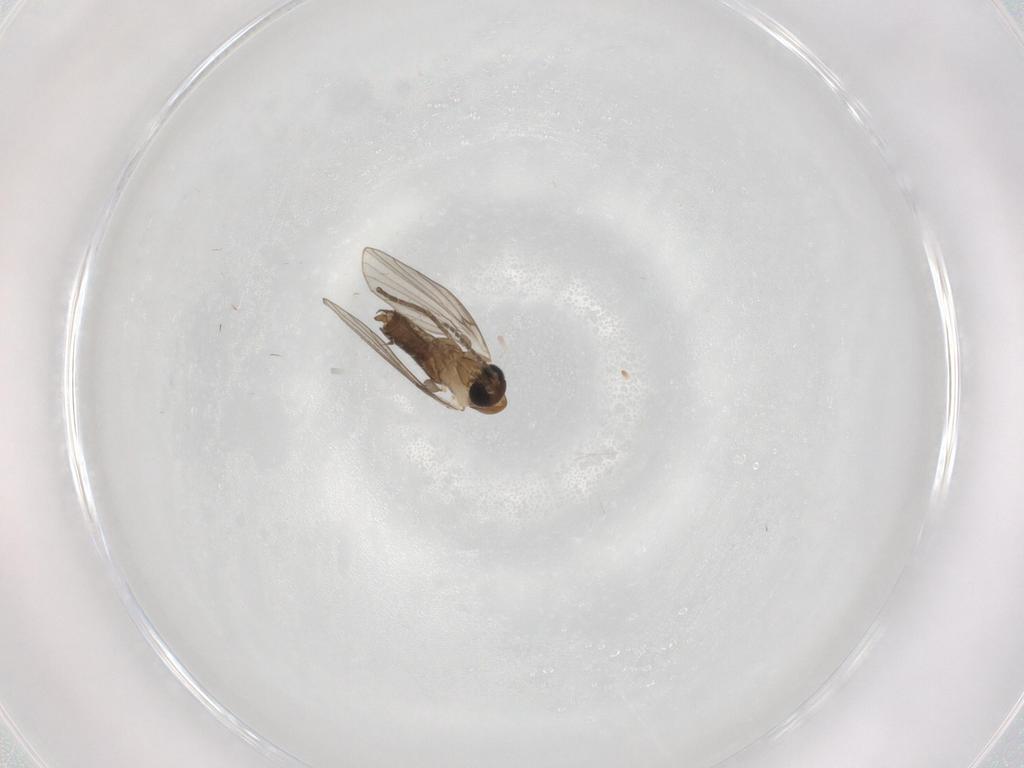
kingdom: Animalia
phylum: Arthropoda
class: Insecta
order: Diptera
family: Psychodidae
